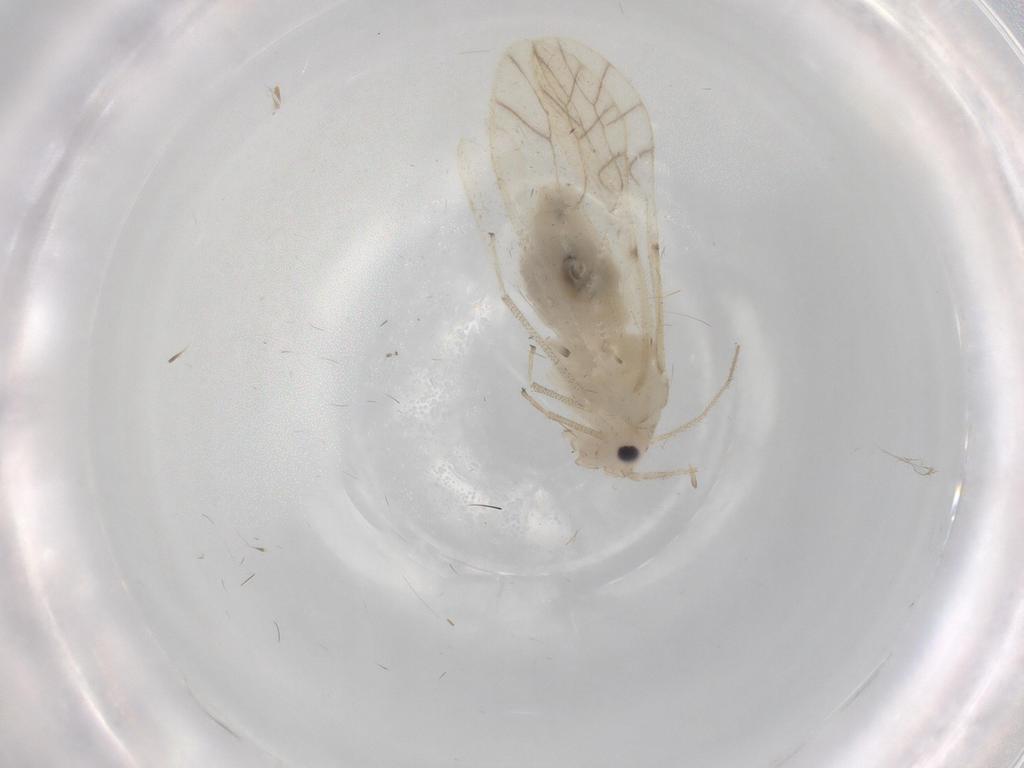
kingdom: Animalia
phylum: Arthropoda
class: Insecta
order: Psocodea
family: Caeciliusidae
